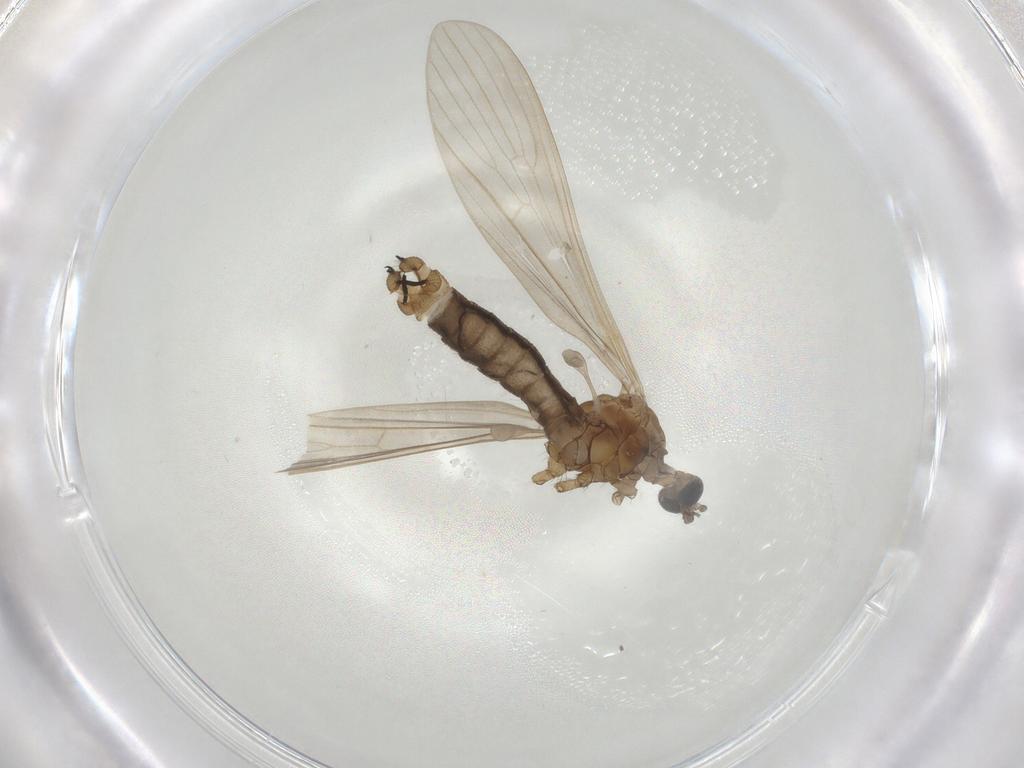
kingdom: Animalia
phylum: Arthropoda
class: Insecta
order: Diptera
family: Limoniidae
